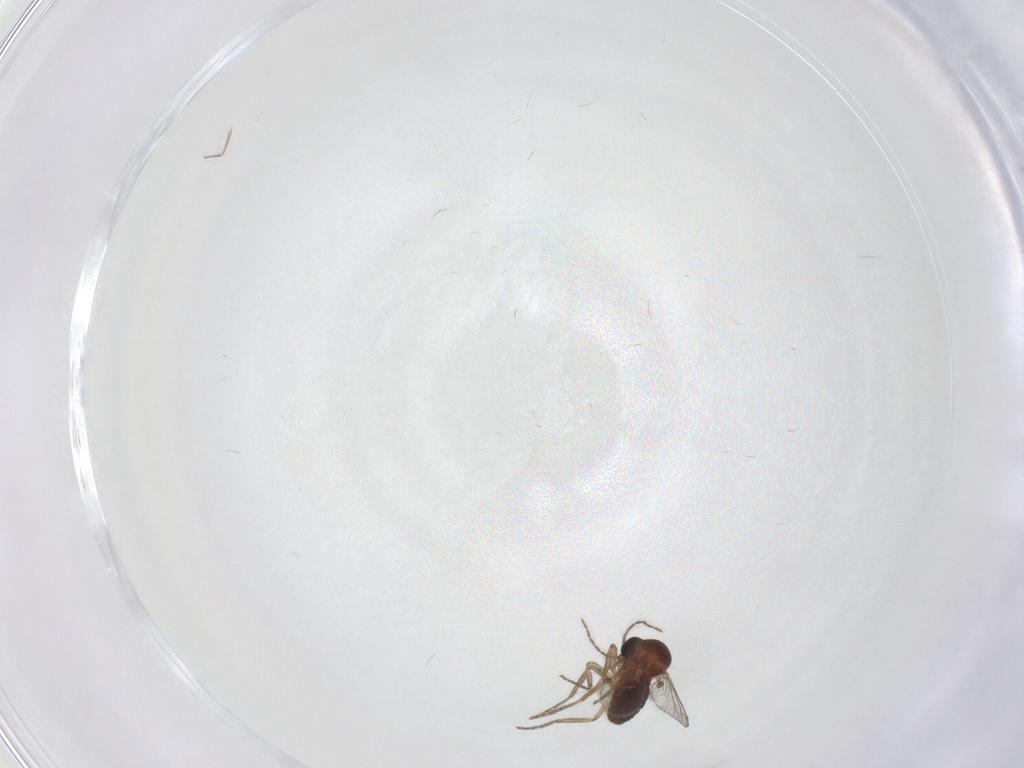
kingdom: Animalia
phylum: Arthropoda
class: Insecta
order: Diptera
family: Ceratopogonidae
